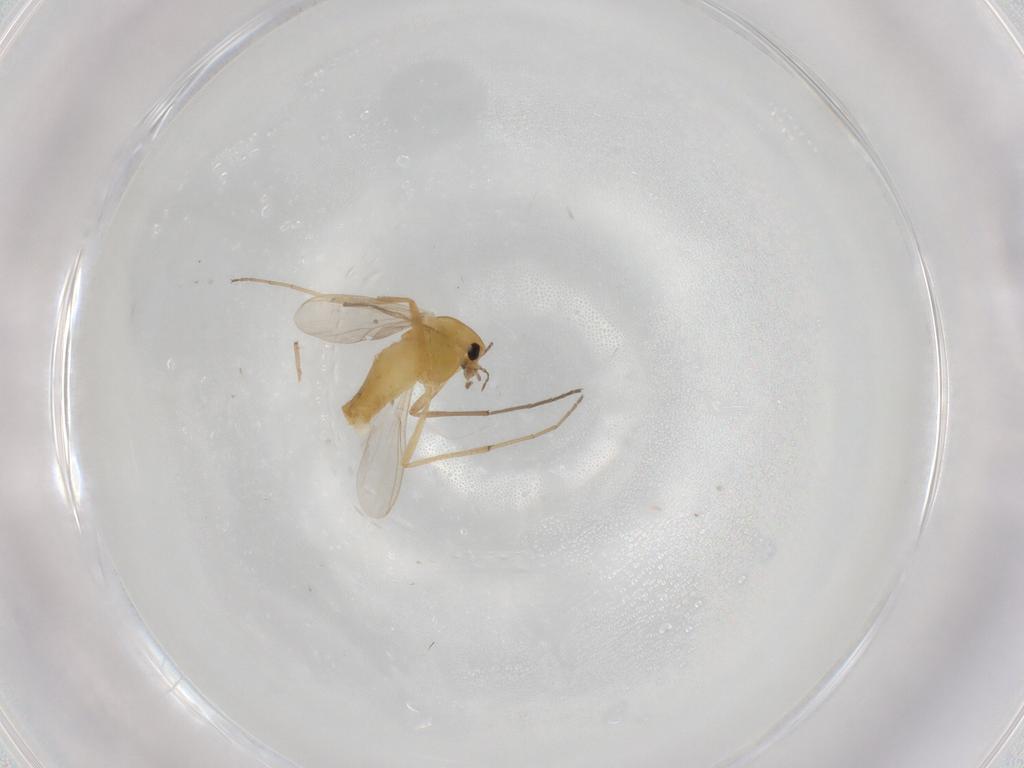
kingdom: Animalia
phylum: Arthropoda
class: Insecta
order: Diptera
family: Chironomidae
